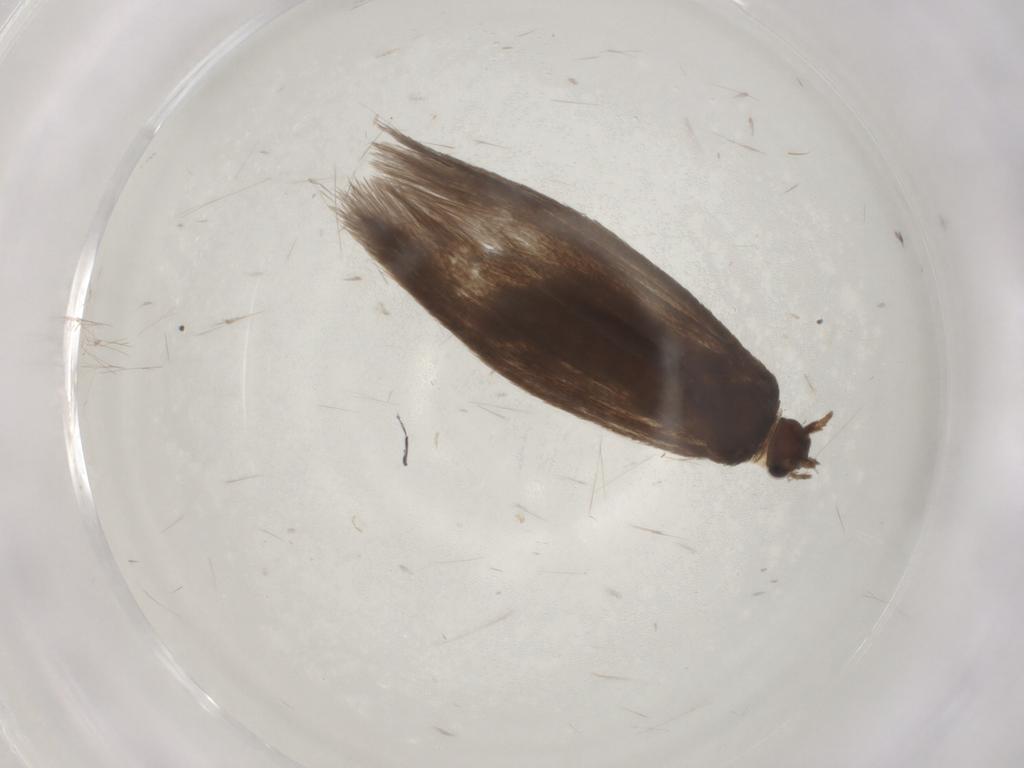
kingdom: Animalia
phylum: Arthropoda
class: Insecta
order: Lepidoptera
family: Limacodidae
